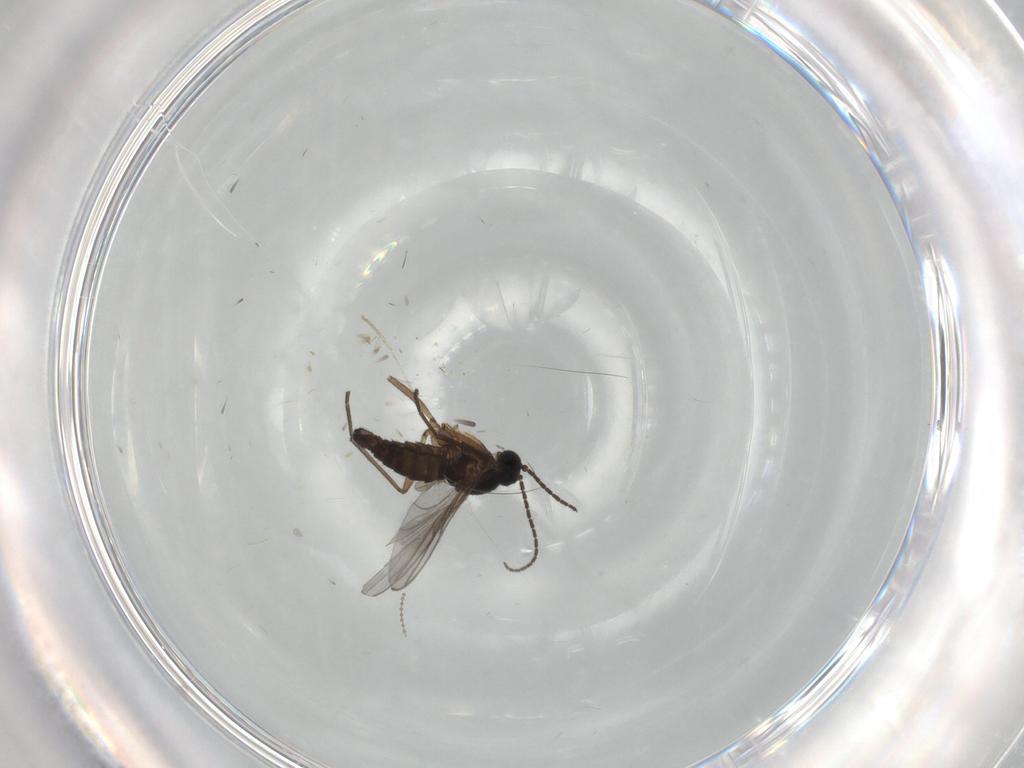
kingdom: Animalia
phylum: Arthropoda
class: Insecta
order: Diptera
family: Sciaridae
